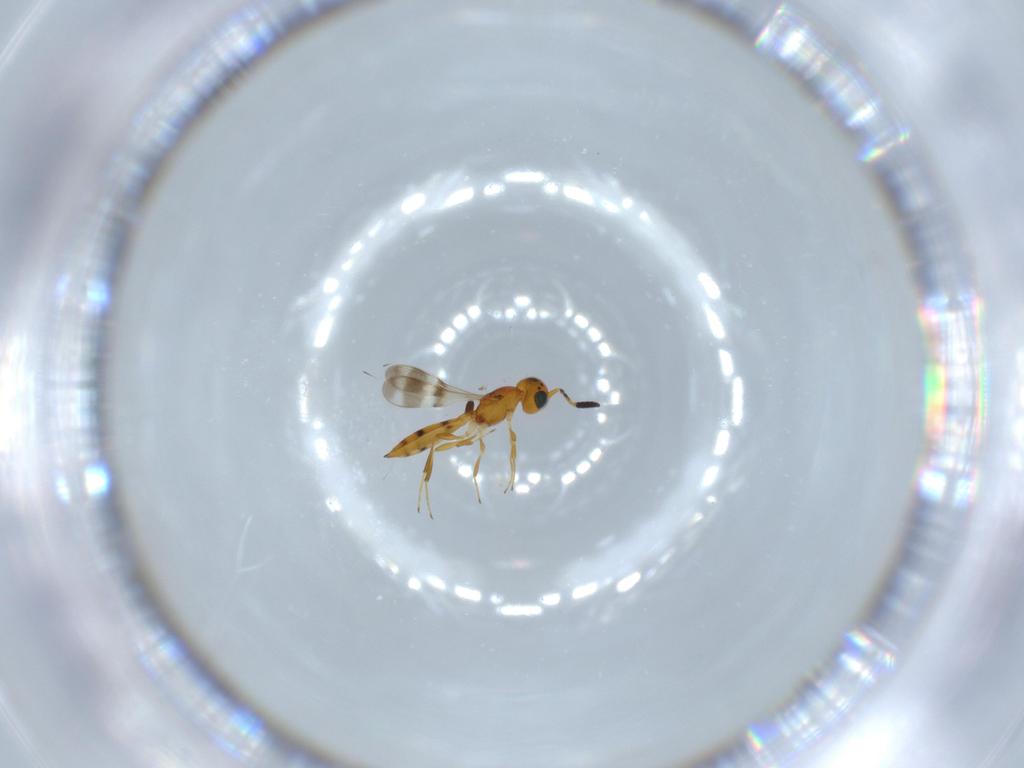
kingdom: Animalia
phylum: Arthropoda
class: Insecta
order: Hymenoptera
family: Scelionidae
